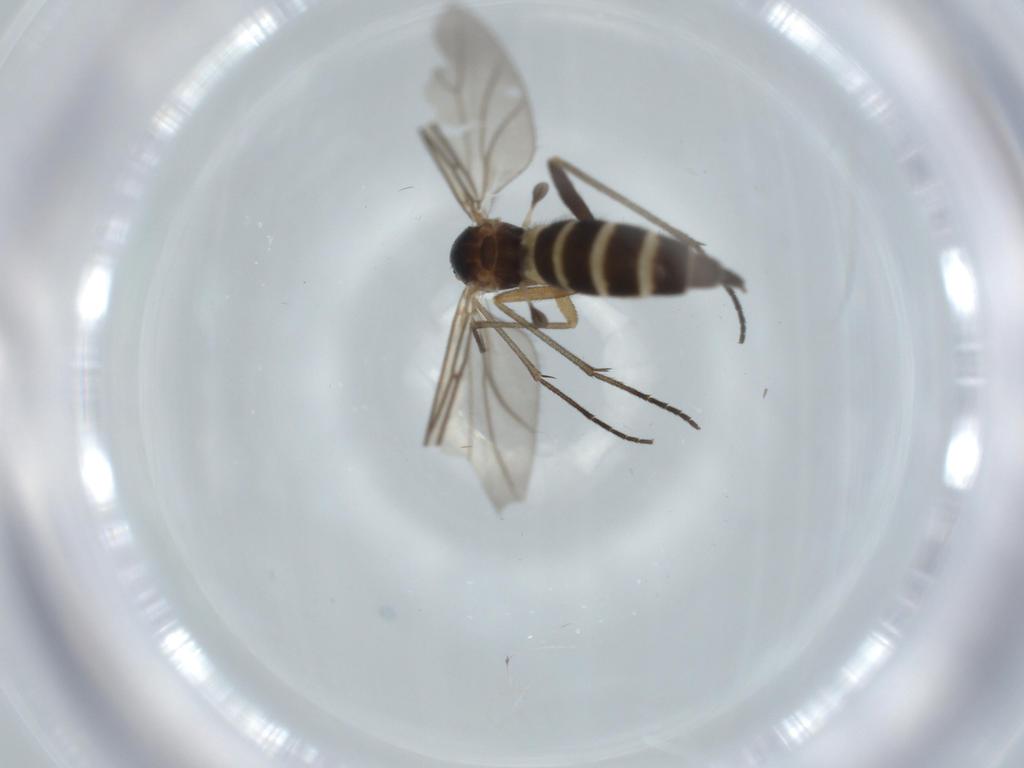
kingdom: Animalia
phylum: Arthropoda
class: Insecta
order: Diptera
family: Sciaridae
